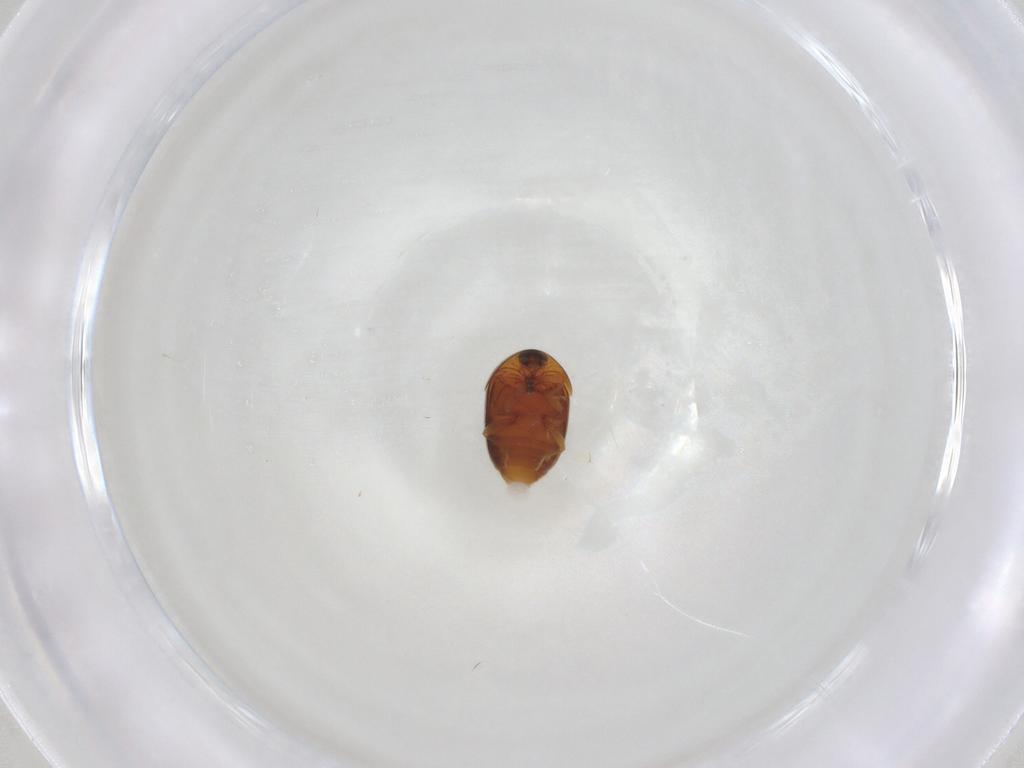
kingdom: Animalia
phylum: Arthropoda
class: Insecta
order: Coleoptera
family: Corylophidae
